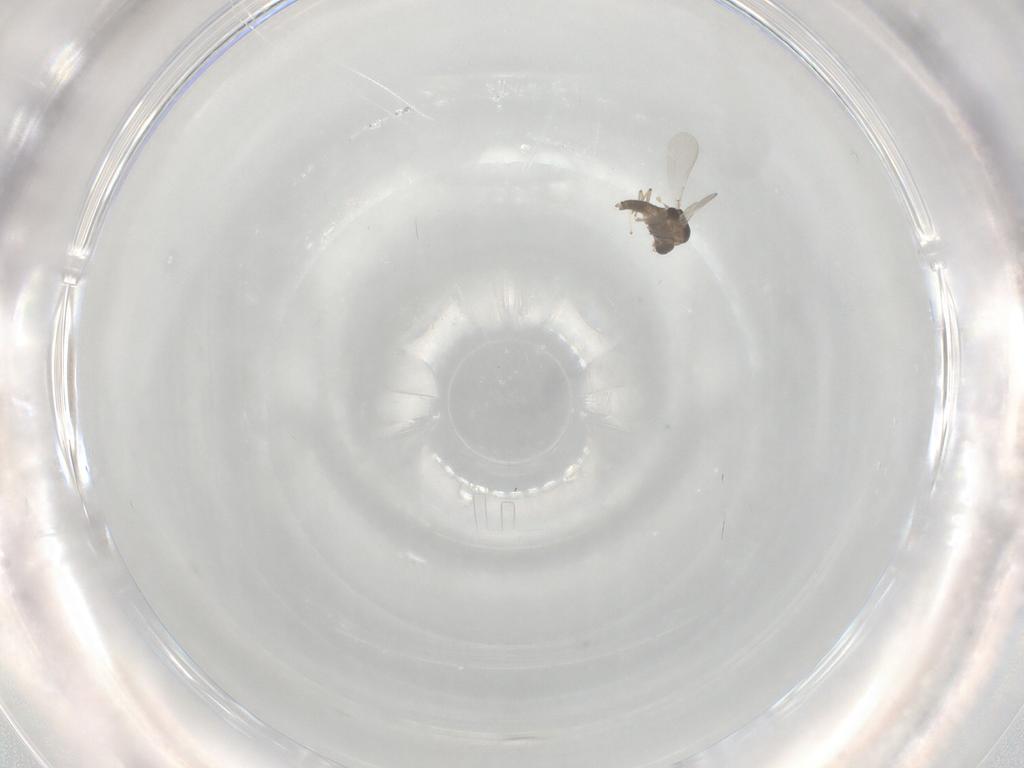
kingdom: Animalia
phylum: Arthropoda
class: Insecta
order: Diptera
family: Chironomidae
